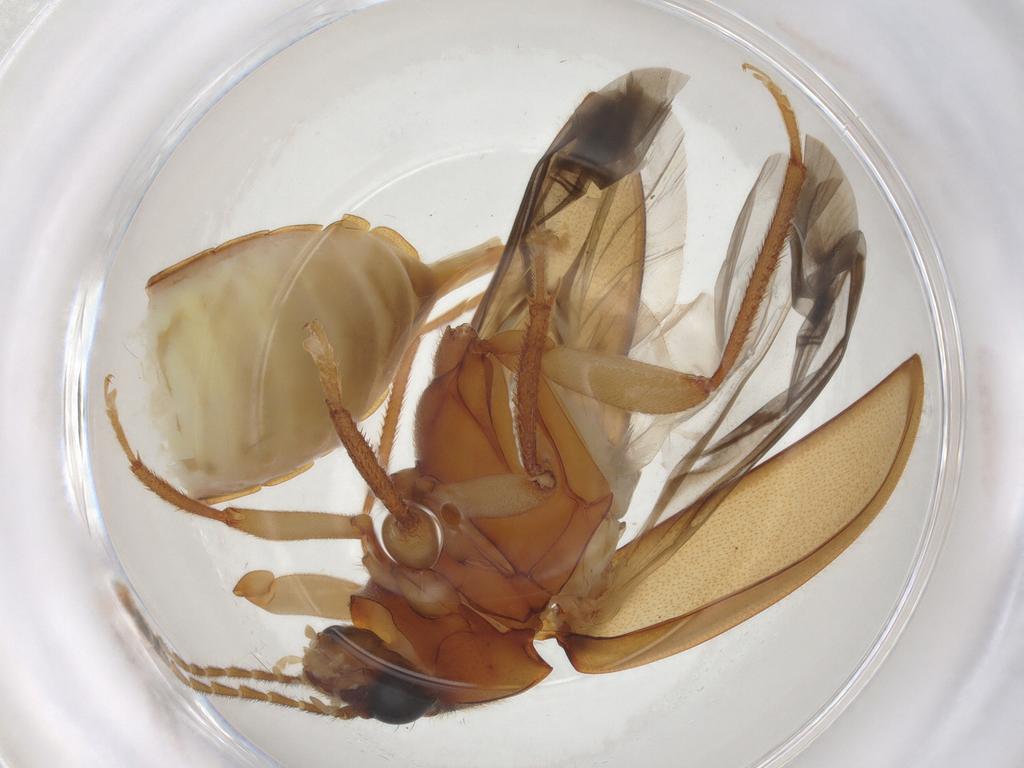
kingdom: Animalia
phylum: Arthropoda
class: Insecta
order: Coleoptera
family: Ptilodactylidae
